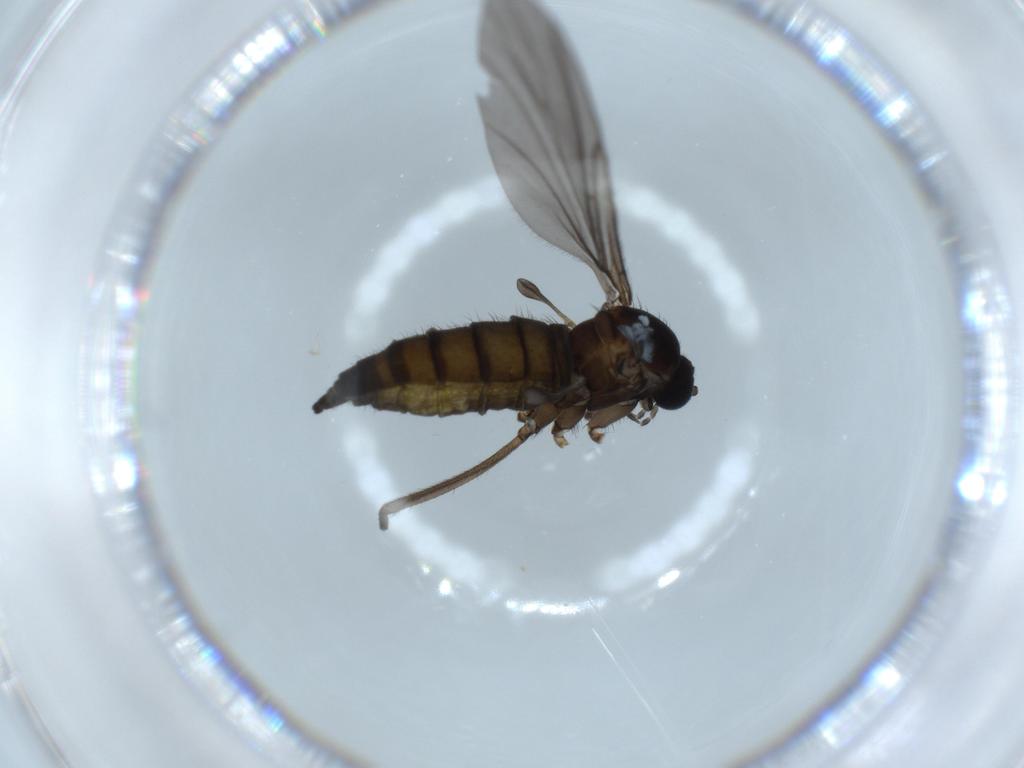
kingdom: Animalia
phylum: Arthropoda
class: Insecta
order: Diptera
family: Sciaridae
